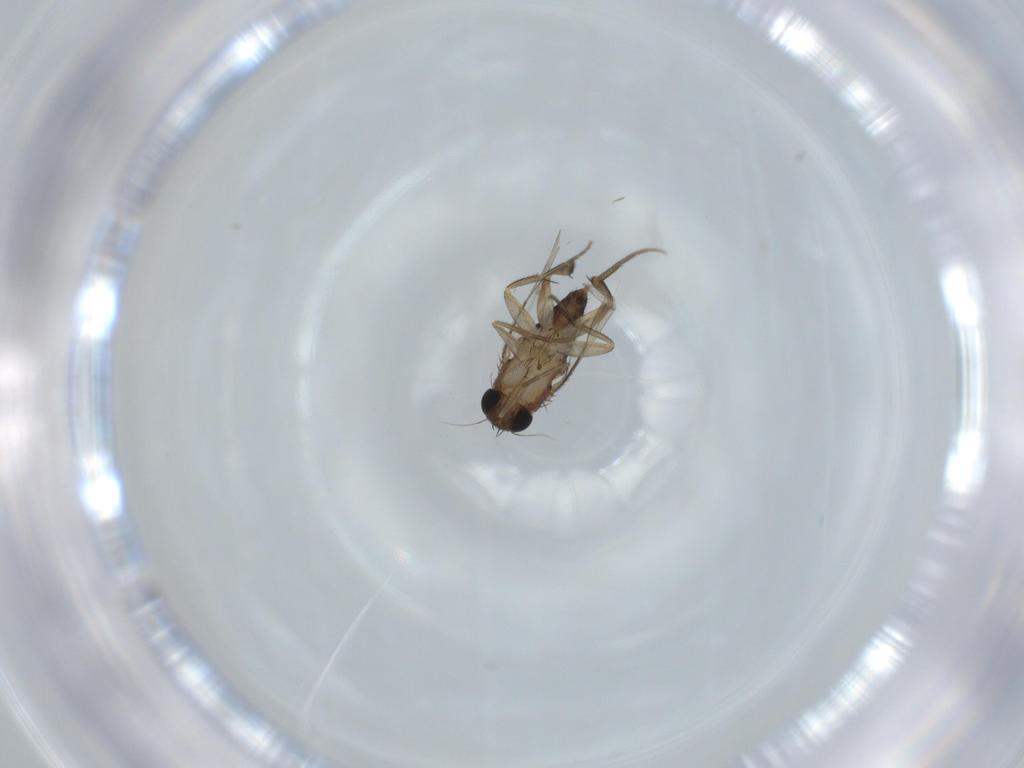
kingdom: Animalia
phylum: Arthropoda
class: Insecta
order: Diptera
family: Phoridae
